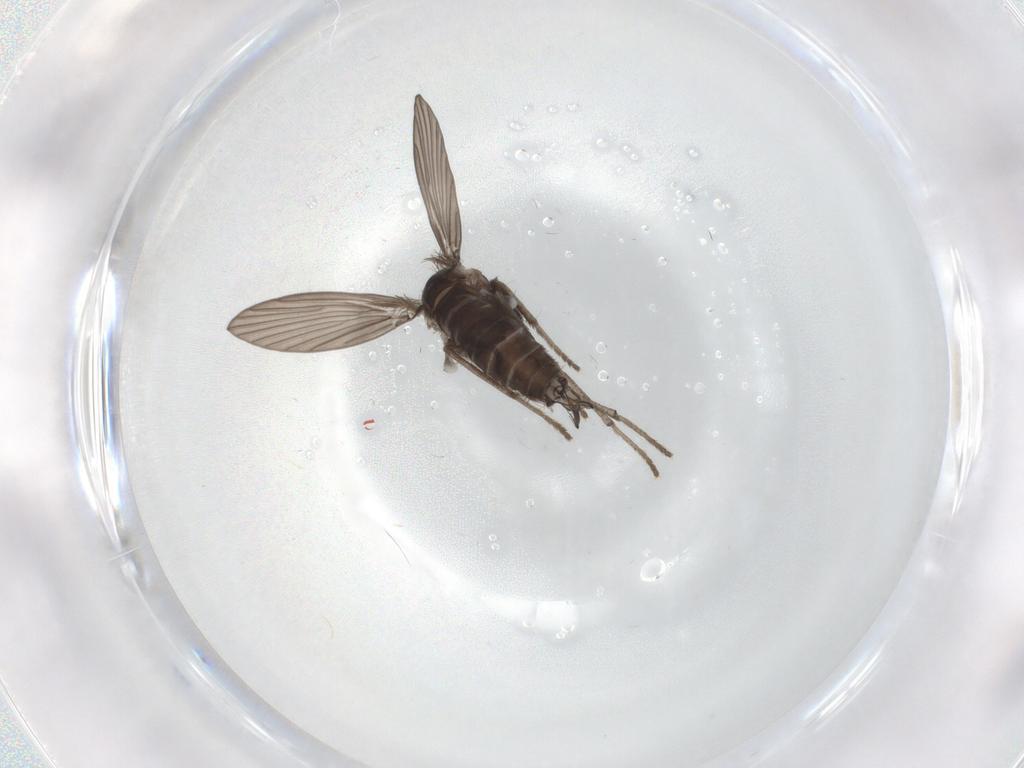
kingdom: Animalia
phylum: Arthropoda
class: Insecta
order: Diptera
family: Psychodidae
